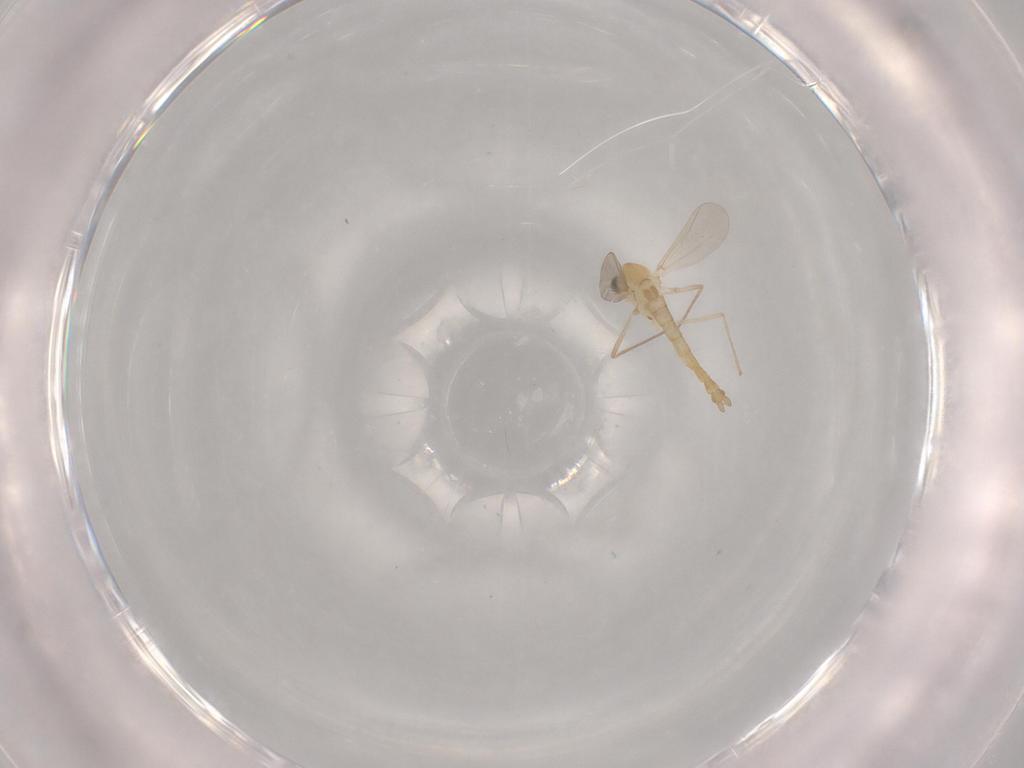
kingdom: Animalia
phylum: Arthropoda
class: Insecta
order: Diptera
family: Chironomidae
